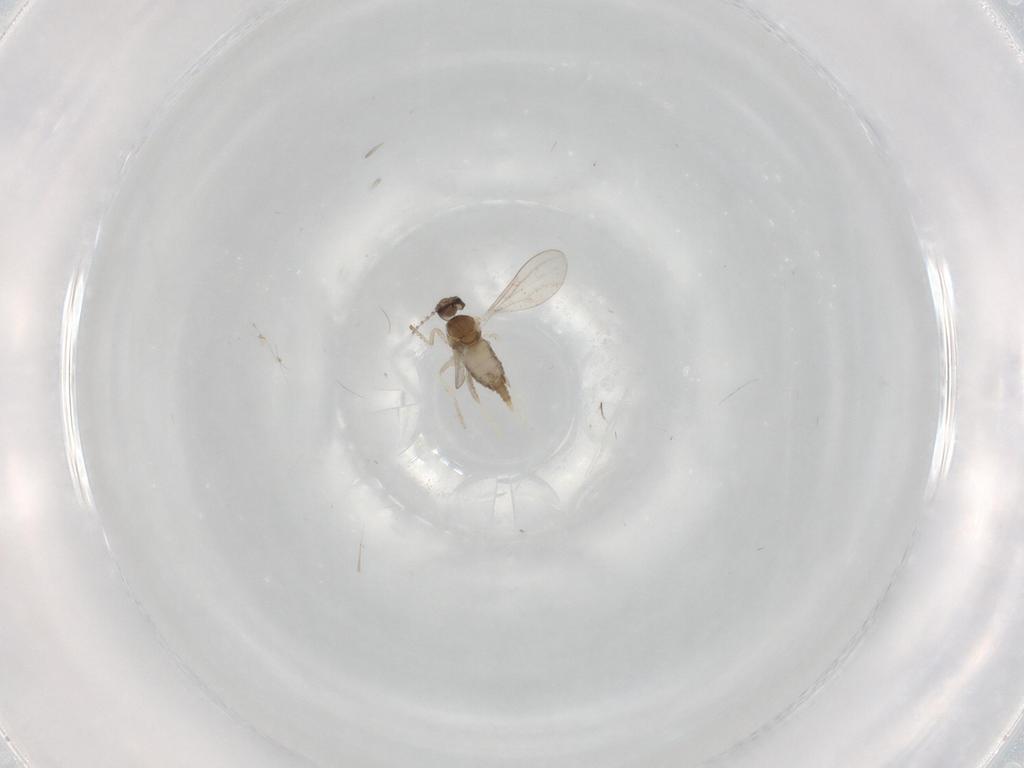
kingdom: Animalia
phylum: Arthropoda
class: Insecta
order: Diptera
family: Cecidomyiidae
